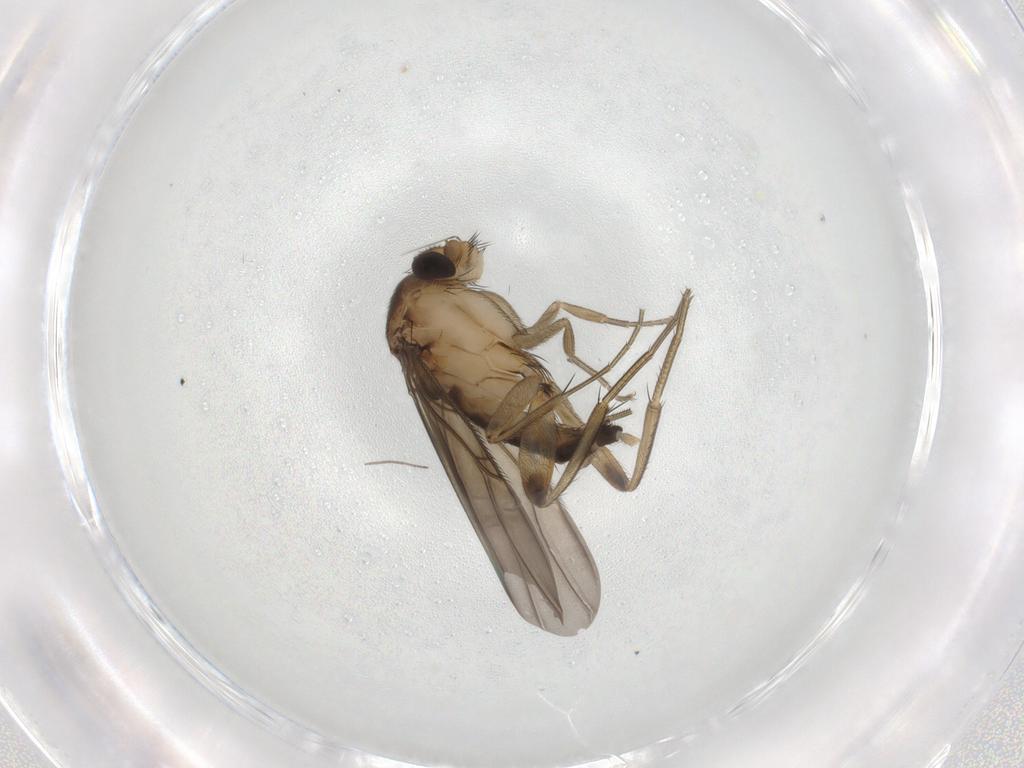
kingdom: Animalia
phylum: Arthropoda
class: Insecta
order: Diptera
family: Phoridae
